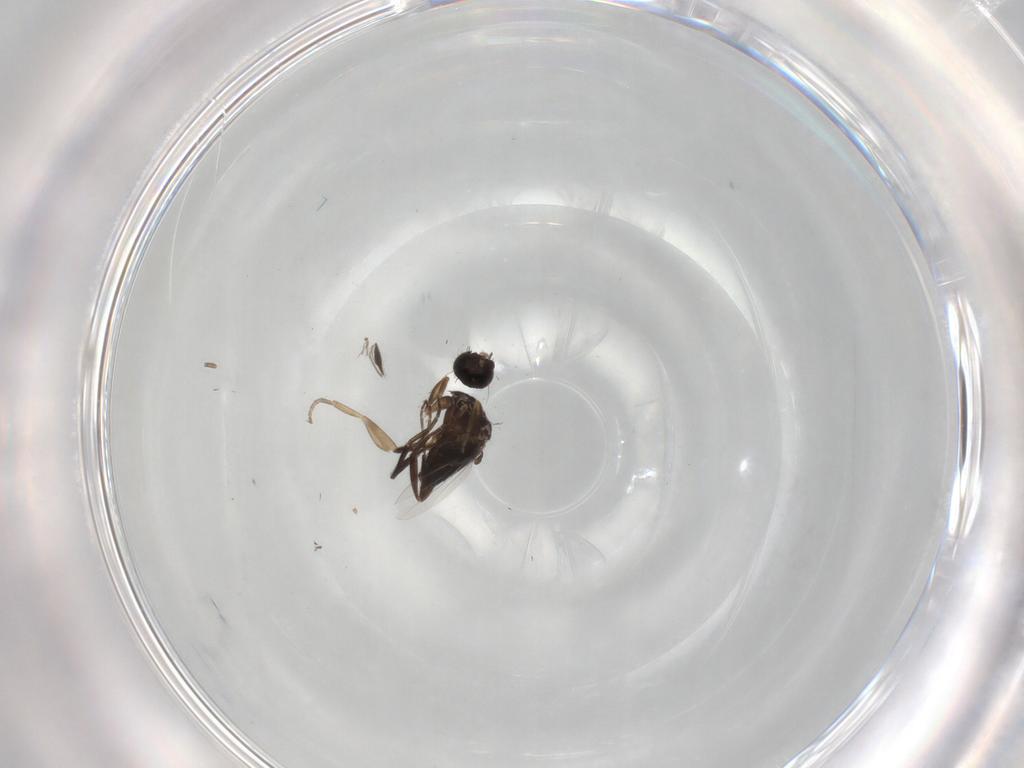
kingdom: Animalia
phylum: Arthropoda
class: Insecta
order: Diptera
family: Phoridae
